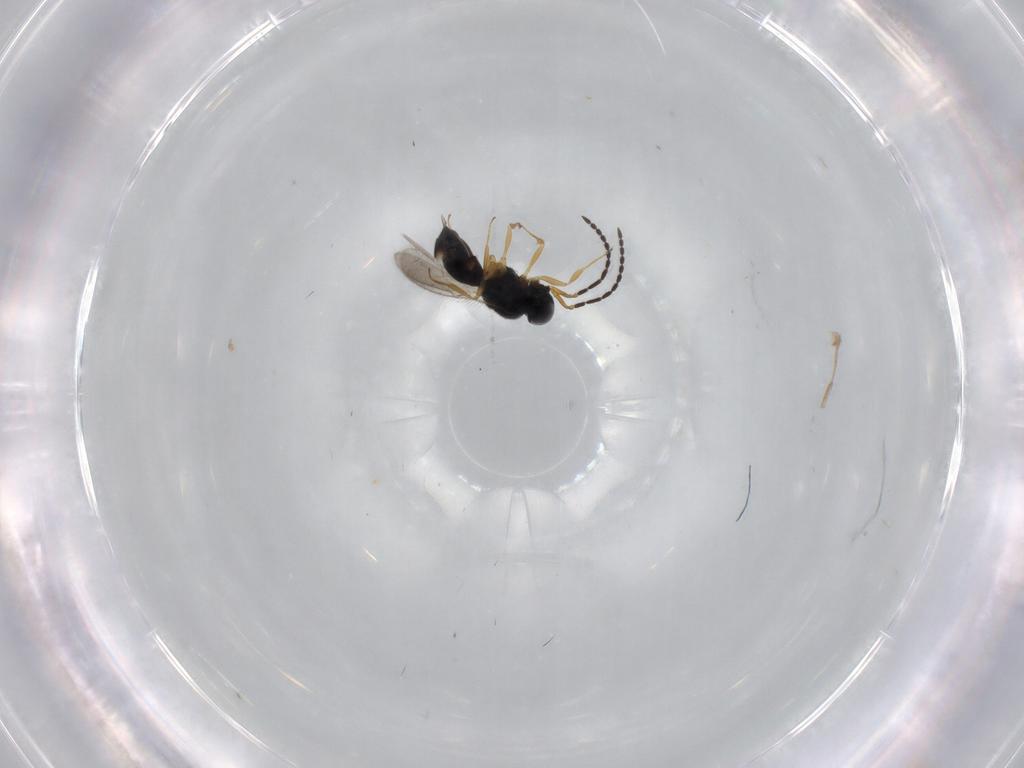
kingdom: Animalia
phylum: Arthropoda
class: Insecta
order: Hymenoptera
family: Scelionidae
